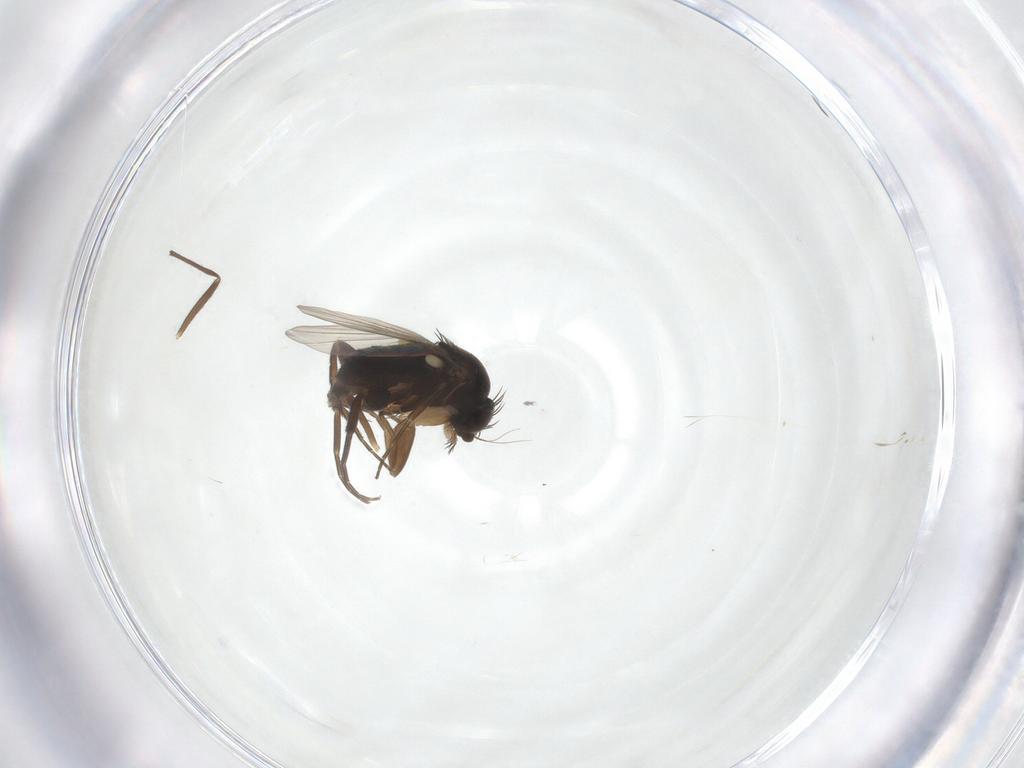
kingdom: Animalia
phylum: Arthropoda
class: Insecta
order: Diptera
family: Phoridae
